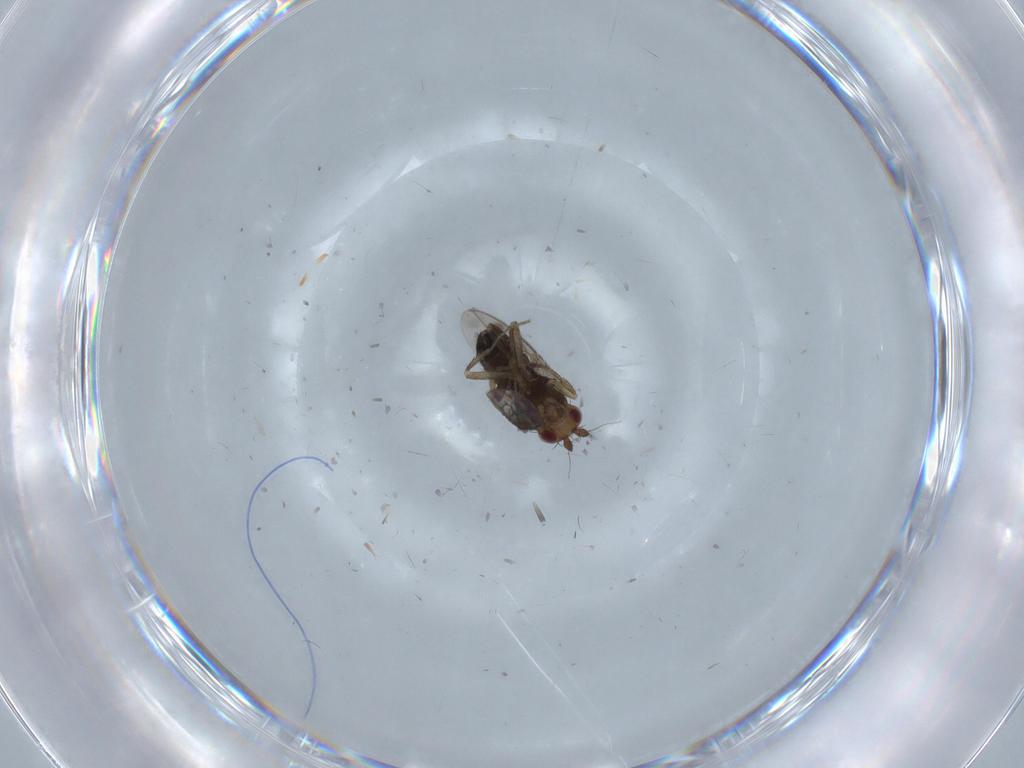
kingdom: Animalia
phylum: Arthropoda
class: Insecta
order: Diptera
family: Sphaeroceridae
